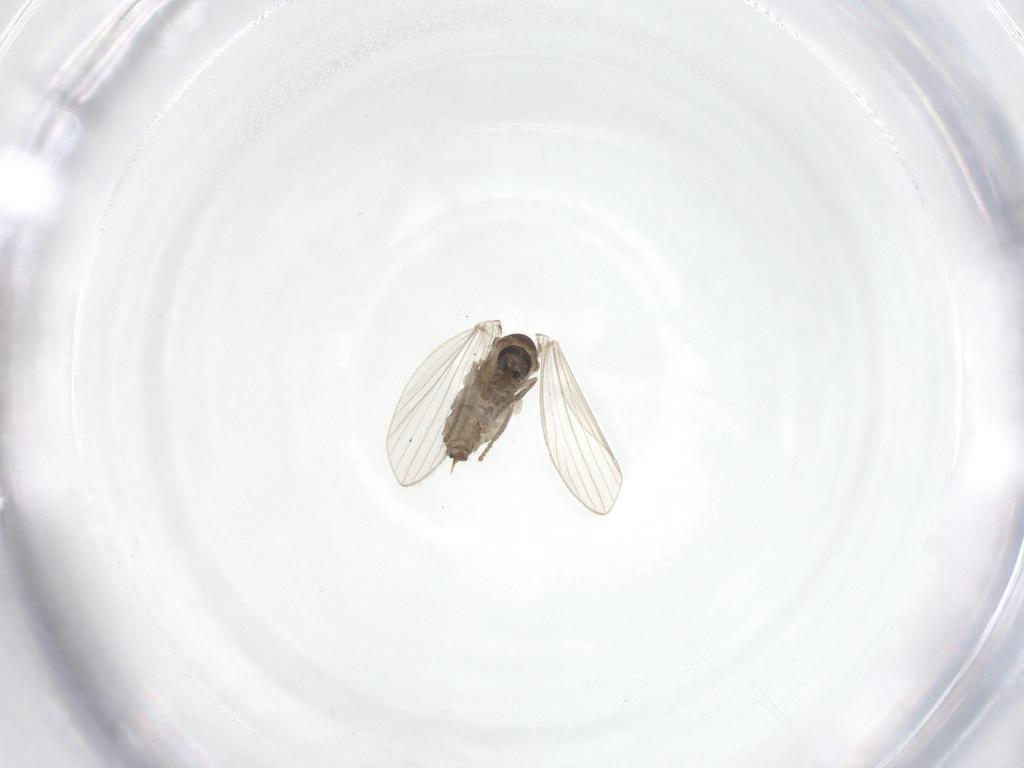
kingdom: Animalia
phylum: Arthropoda
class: Insecta
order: Diptera
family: Psychodidae
